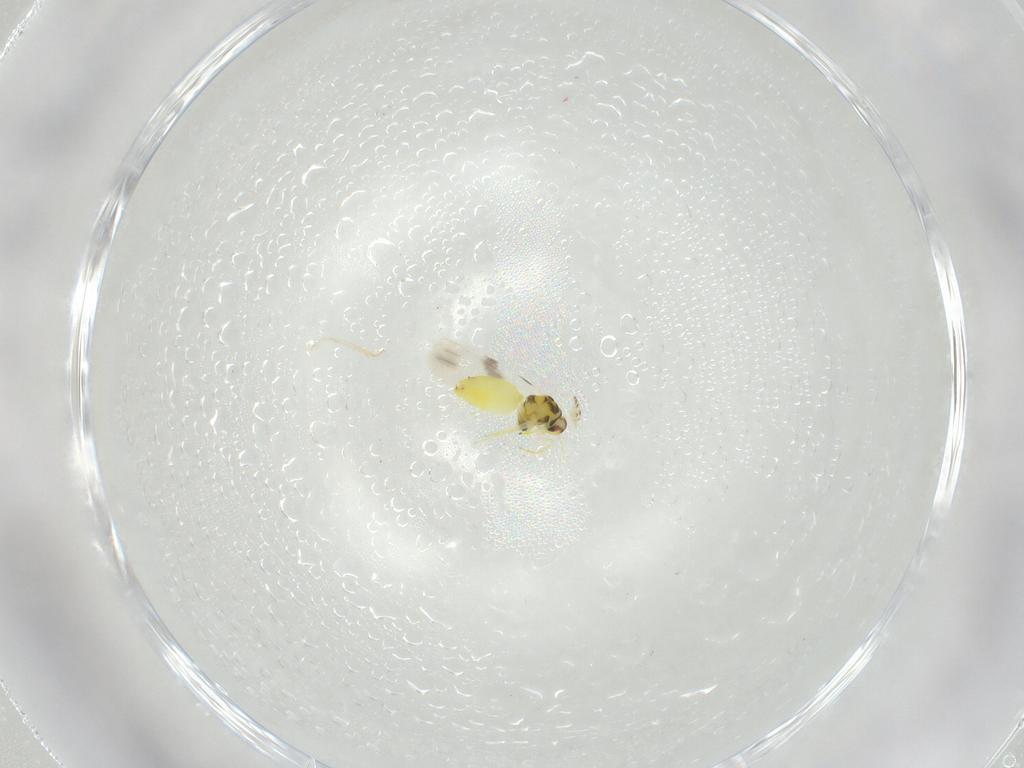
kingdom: Animalia
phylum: Arthropoda
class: Insecta
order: Hemiptera
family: Aleyrodidae
